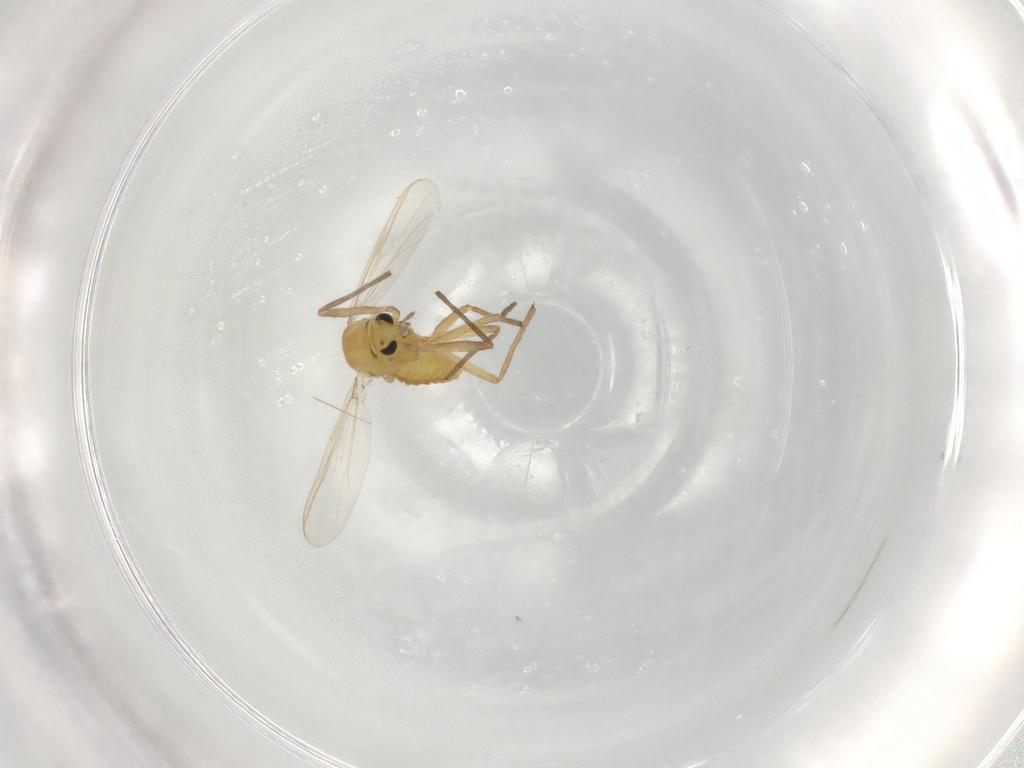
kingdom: Animalia
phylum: Arthropoda
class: Insecta
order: Diptera
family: Chironomidae
